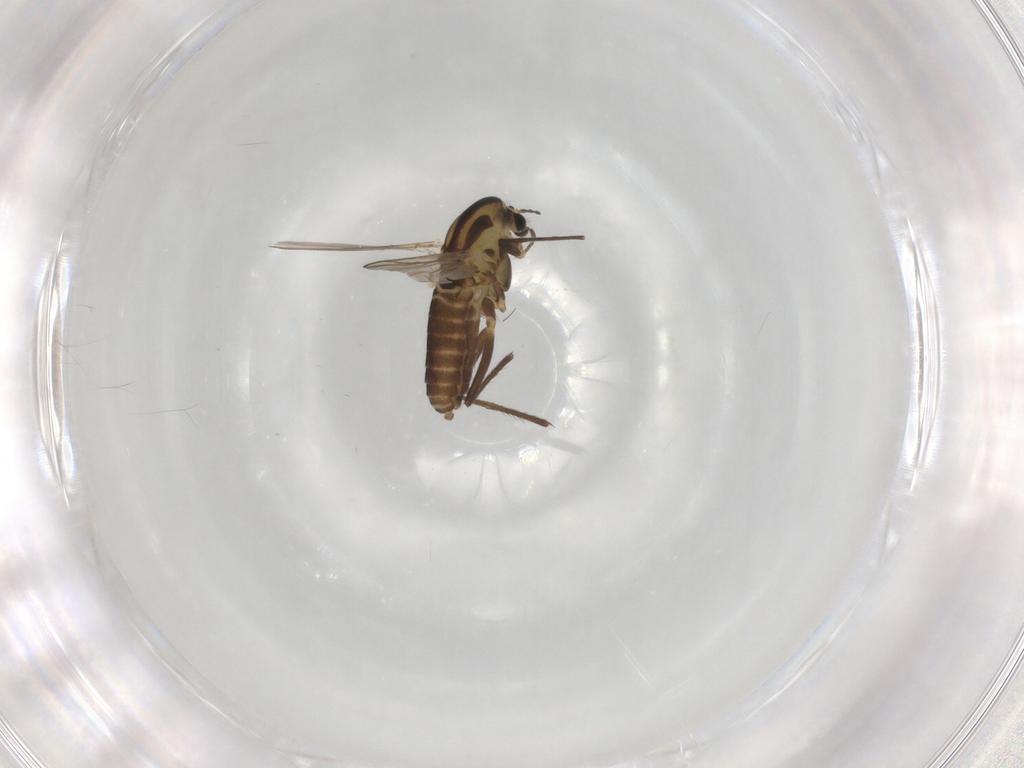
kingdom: Animalia
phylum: Arthropoda
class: Insecta
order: Diptera
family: Chironomidae
